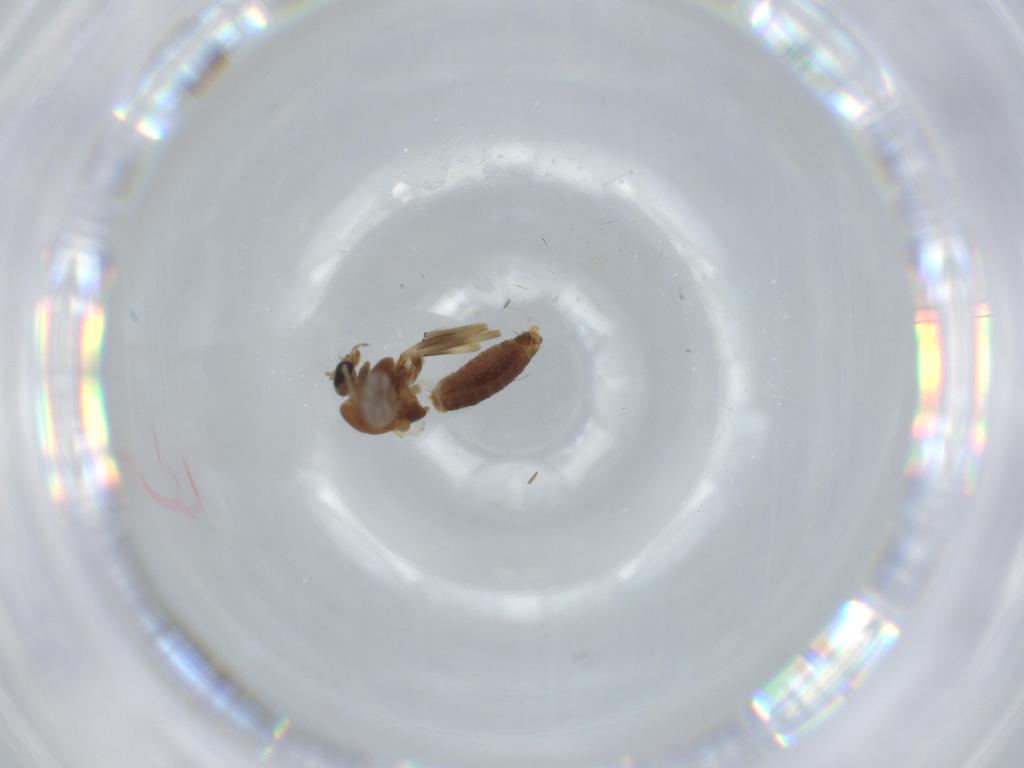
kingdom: Animalia
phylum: Arthropoda
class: Insecta
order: Diptera
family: Chironomidae
